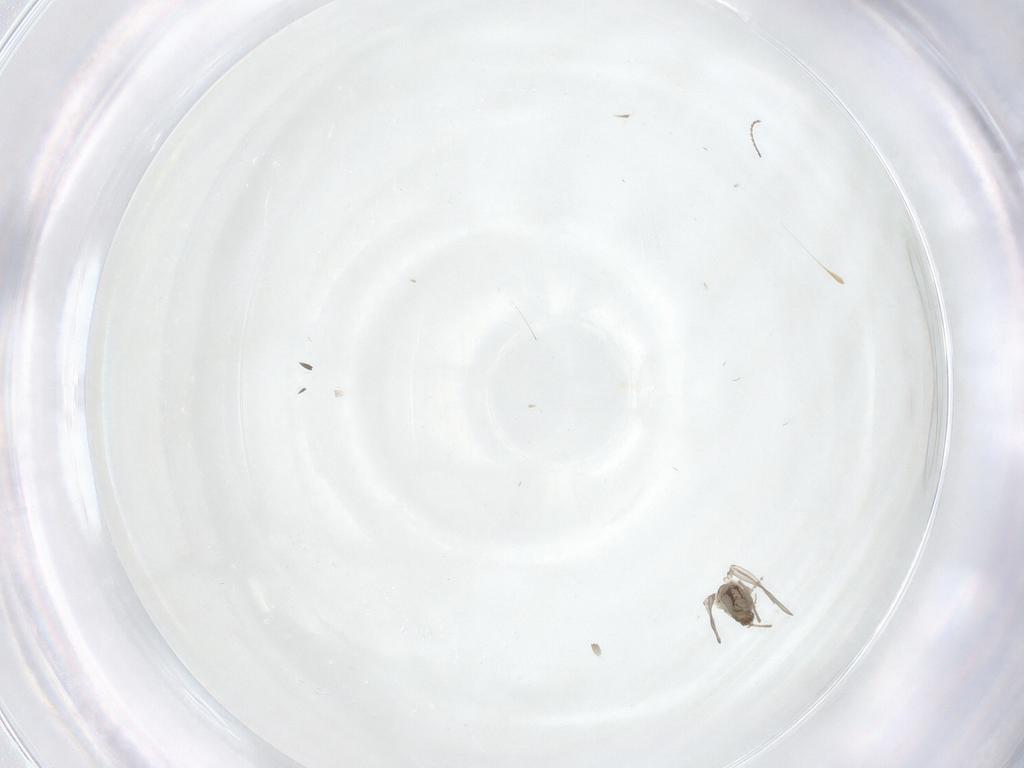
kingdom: Animalia
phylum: Arthropoda
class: Insecta
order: Diptera
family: Psychodidae
